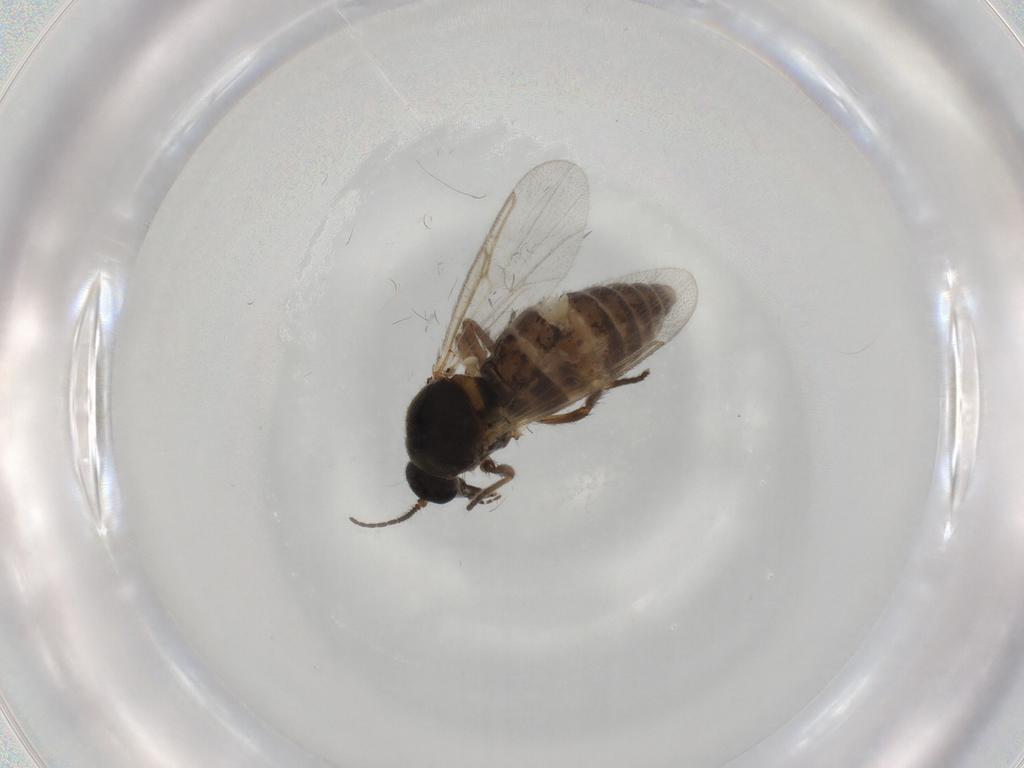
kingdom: Animalia
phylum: Arthropoda
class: Insecta
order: Diptera
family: Ceratopogonidae
